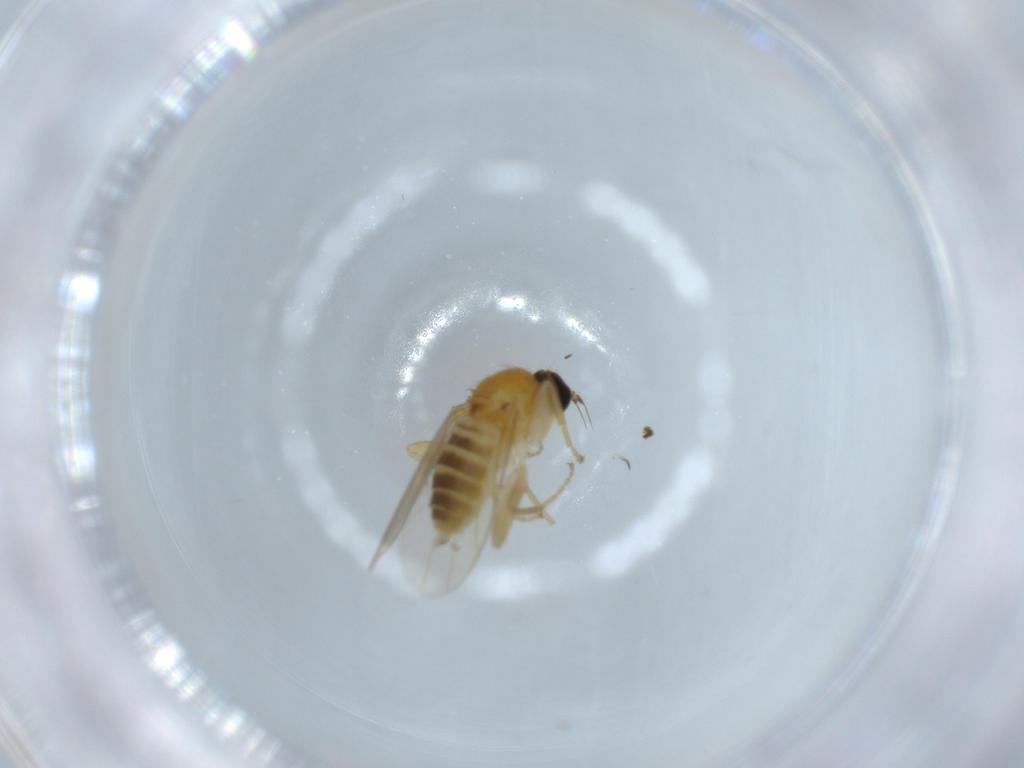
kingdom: Animalia
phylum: Arthropoda
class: Insecta
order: Diptera
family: Hybotidae
